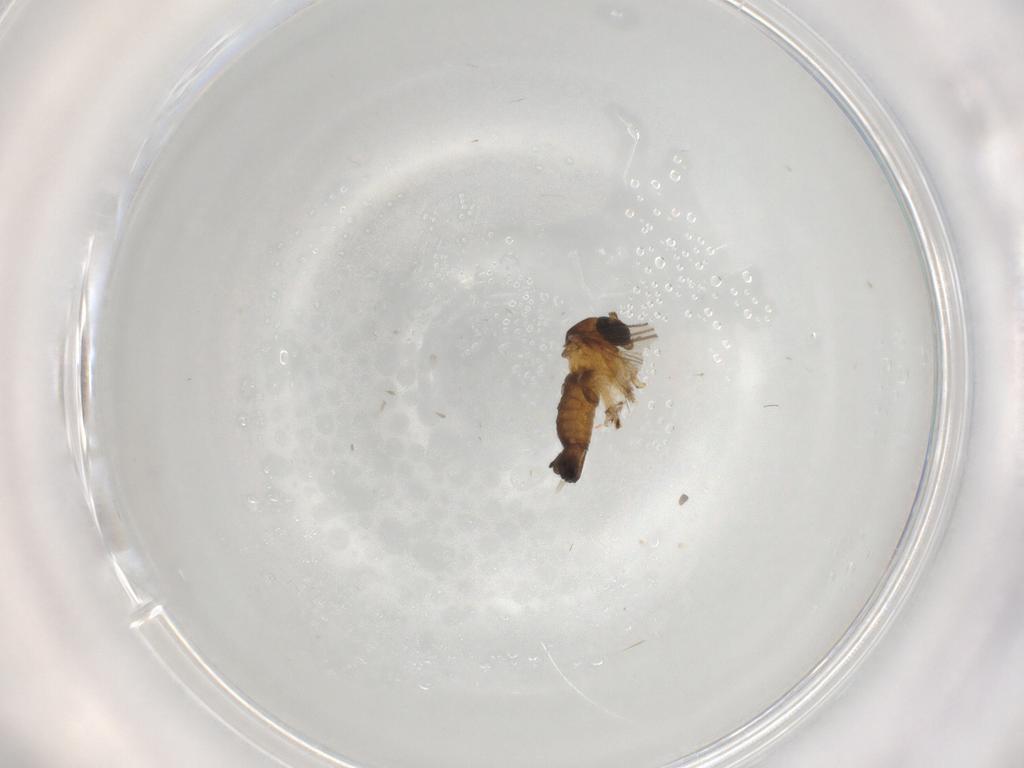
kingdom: Animalia
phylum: Arthropoda
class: Insecta
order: Diptera
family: Sciaridae
